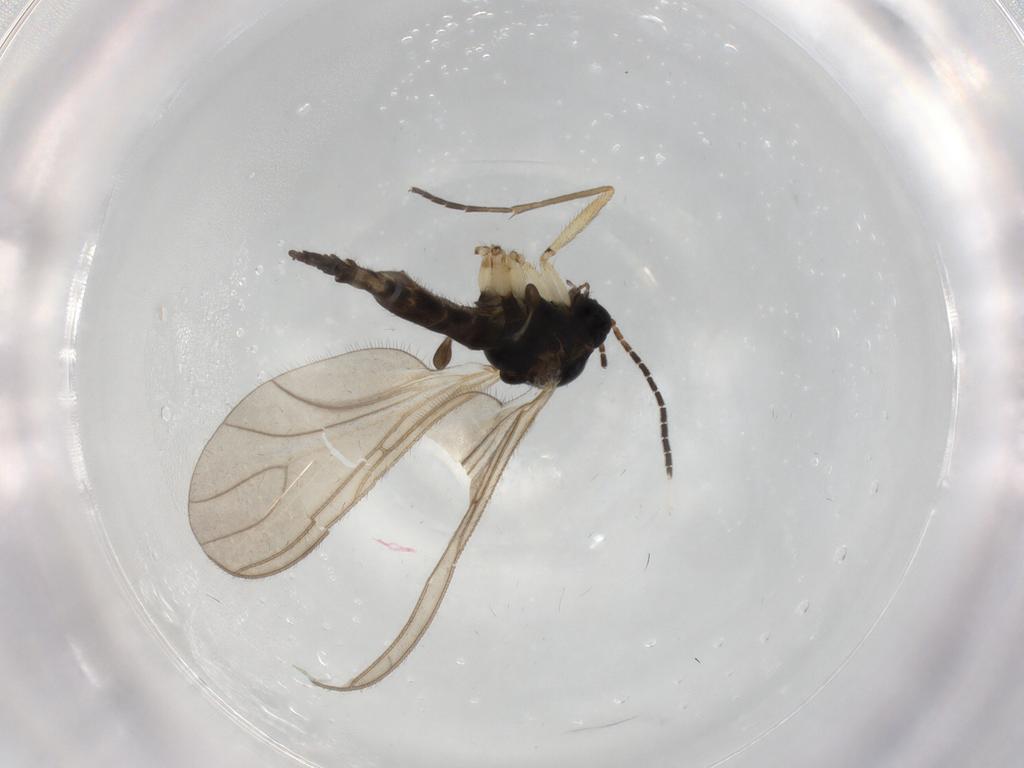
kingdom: Animalia
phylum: Arthropoda
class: Insecta
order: Diptera
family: Sciaridae
